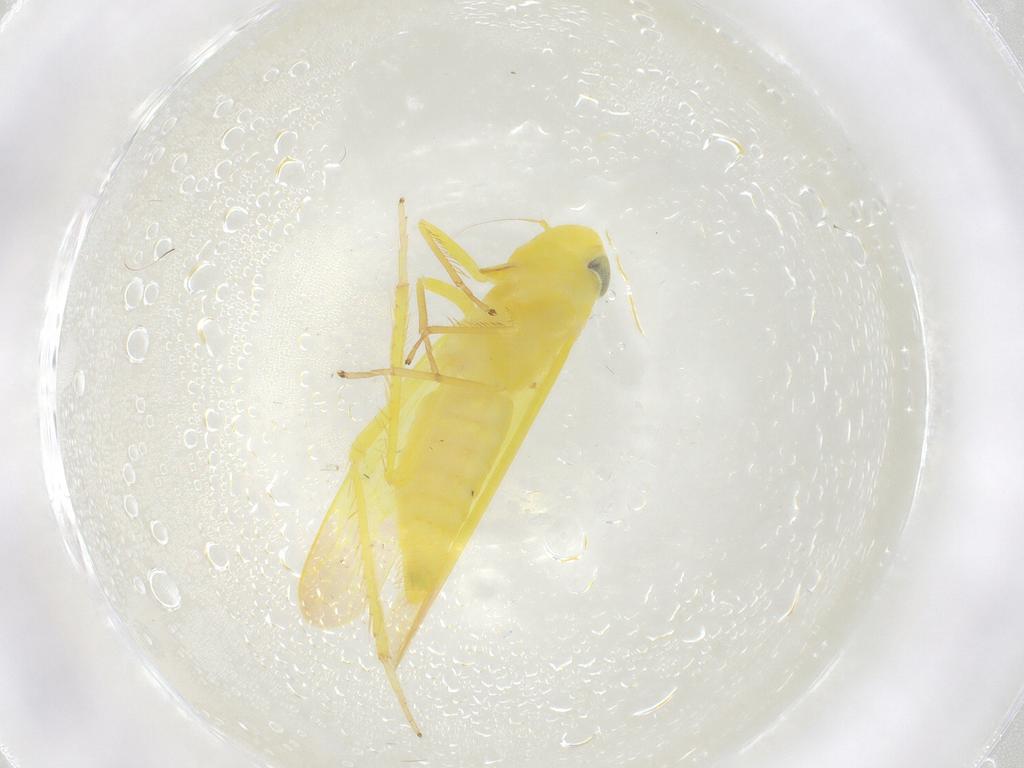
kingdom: Animalia
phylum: Arthropoda
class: Insecta
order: Hemiptera
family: Cicadellidae
